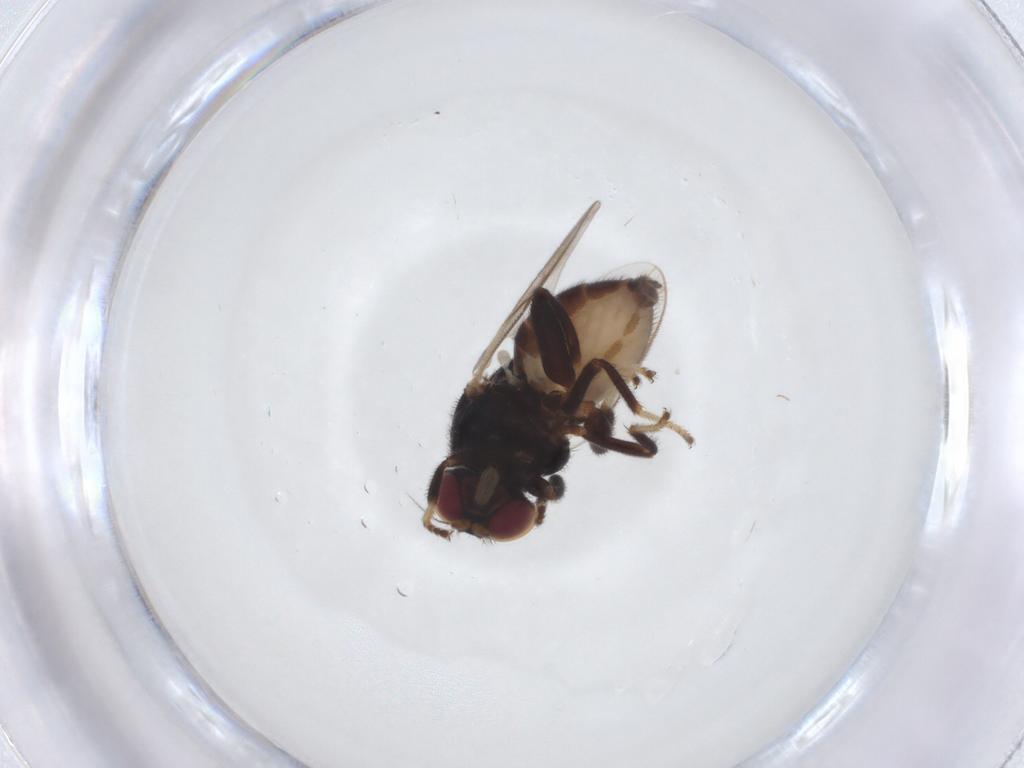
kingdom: Animalia
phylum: Arthropoda
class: Insecta
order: Diptera
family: Chloropidae
